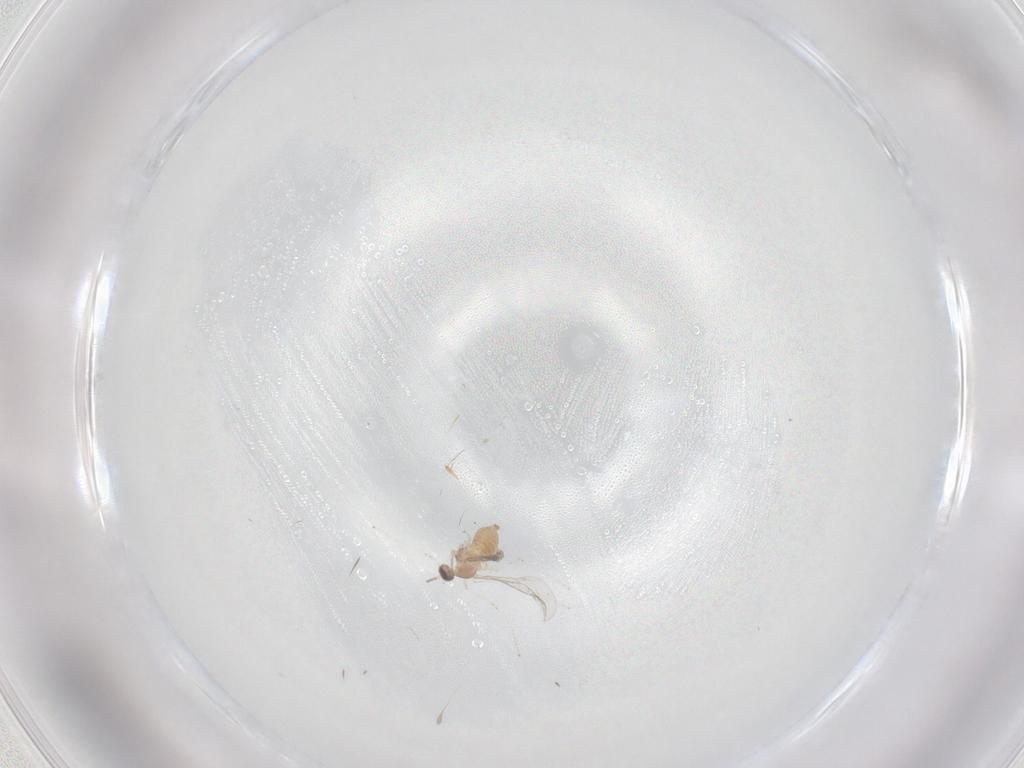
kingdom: Animalia
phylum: Arthropoda
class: Insecta
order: Diptera
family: Cecidomyiidae
